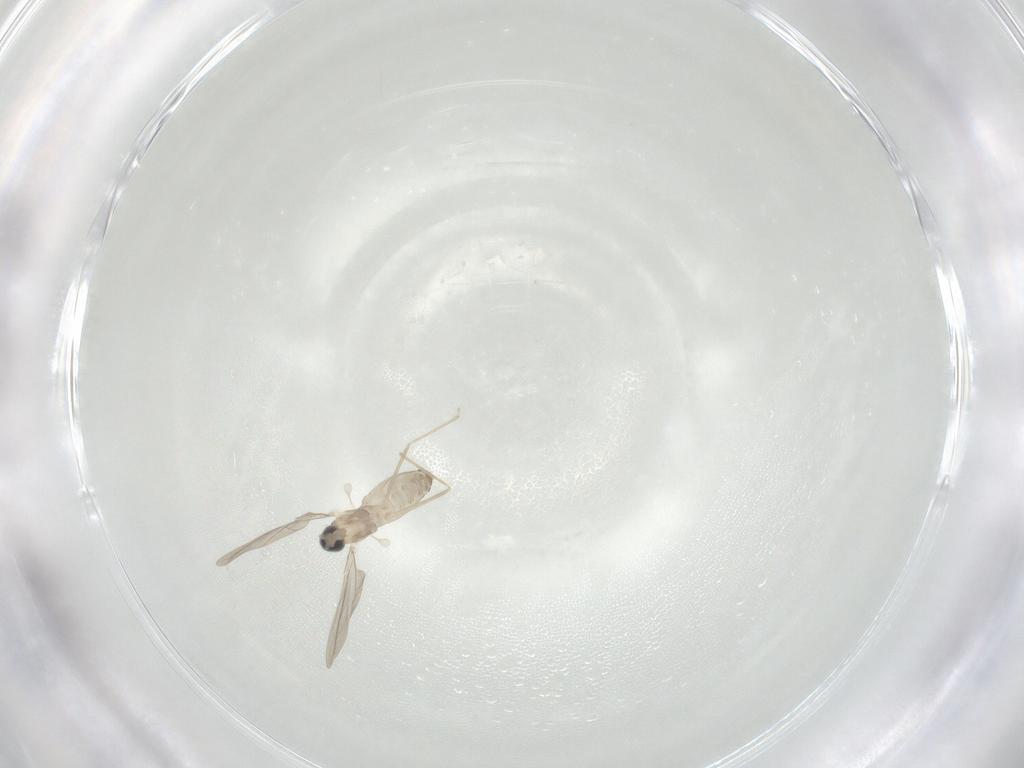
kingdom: Animalia
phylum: Arthropoda
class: Insecta
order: Diptera
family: Cecidomyiidae
